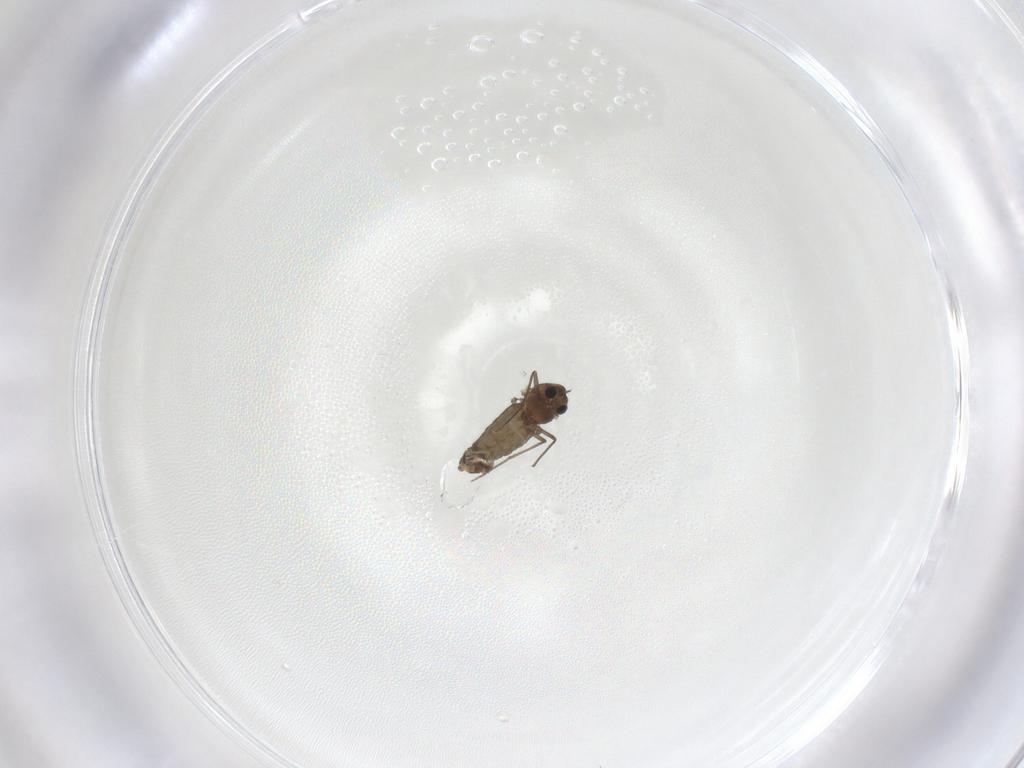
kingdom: Animalia
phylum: Arthropoda
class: Insecta
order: Diptera
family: Chironomidae
